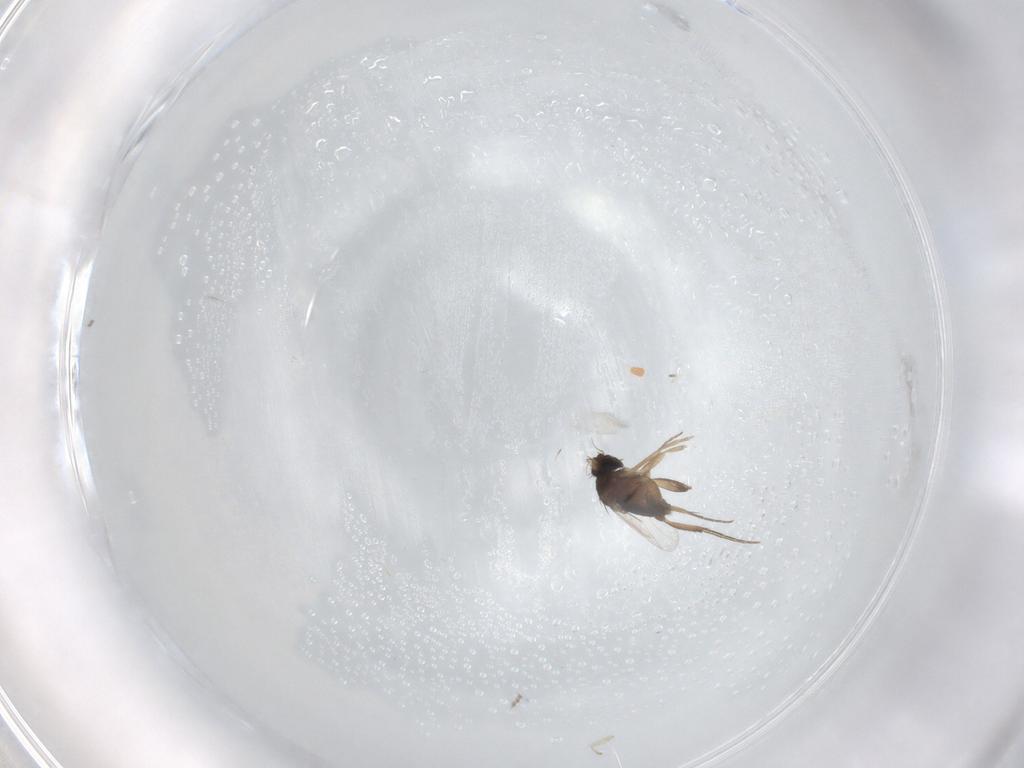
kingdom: Animalia
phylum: Arthropoda
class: Insecta
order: Diptera
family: Phoridae
